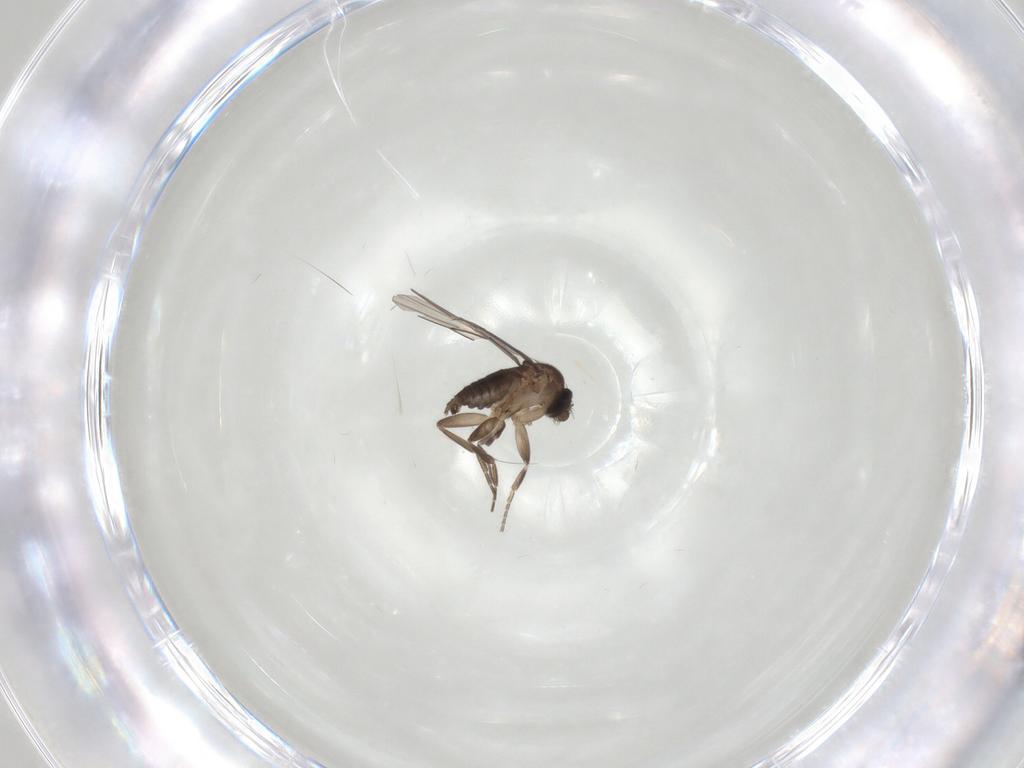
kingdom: Animalia
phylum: Arthropoda
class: Insecta
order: Diptera
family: Phoridae
